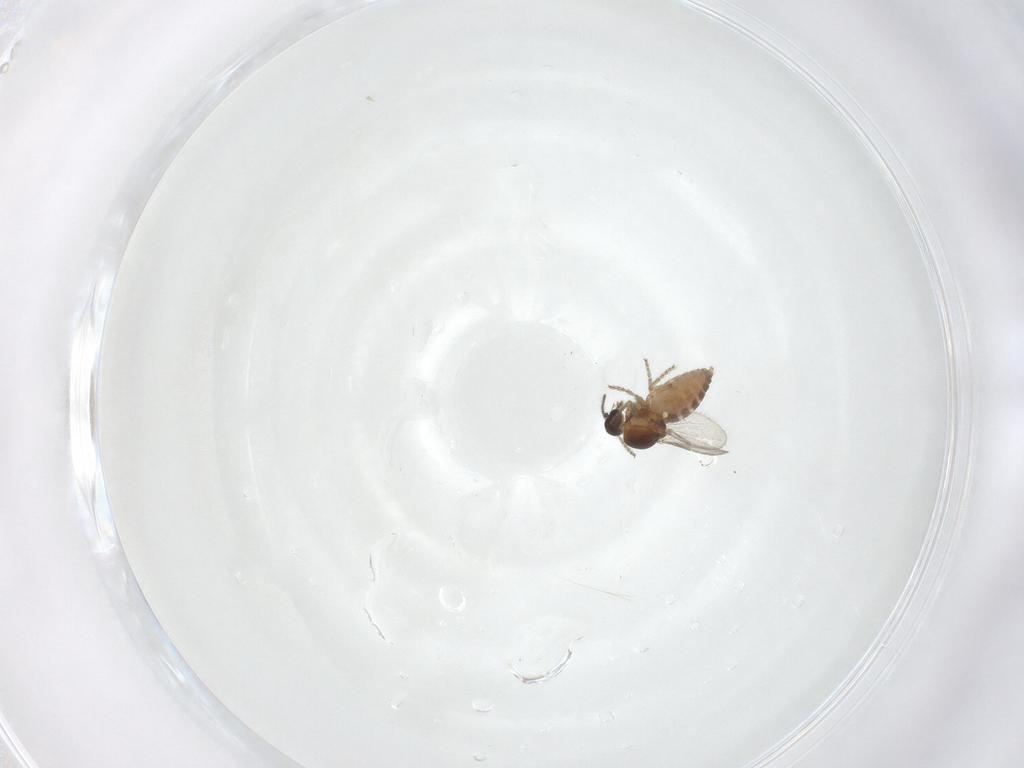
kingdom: Animalia
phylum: Arthropoda
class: Insecta
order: Diptera
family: Ceratopogonidae
